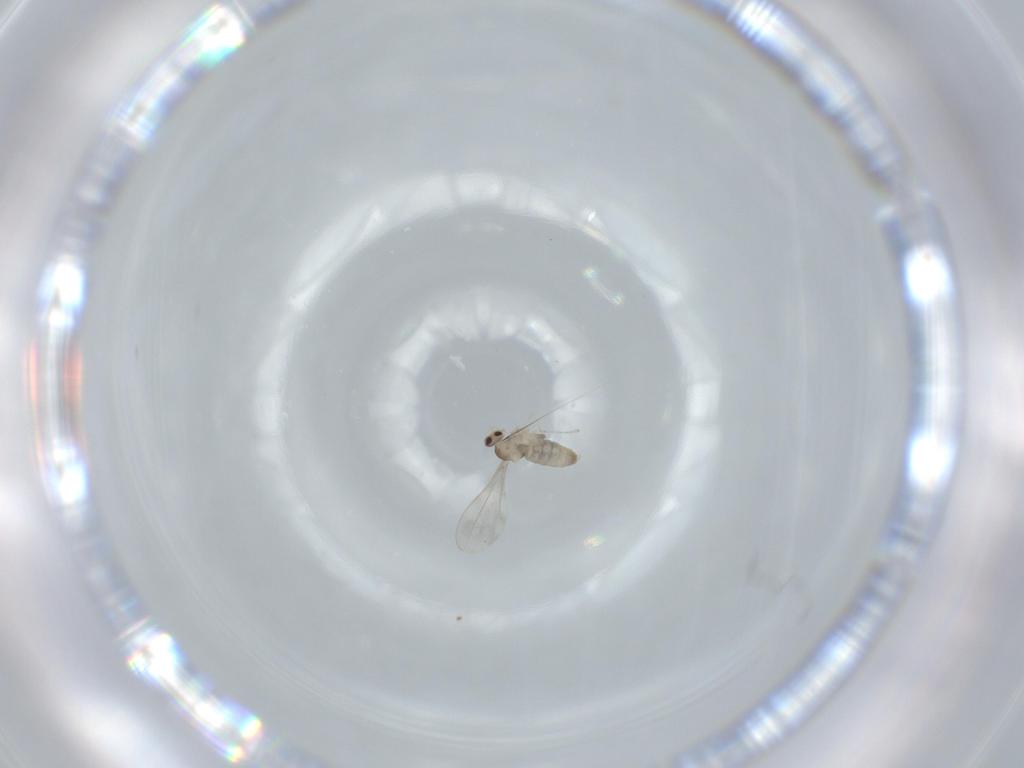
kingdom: Animalia
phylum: Arthropoda
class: Insecta
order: Diptera
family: Cecidomyiidae
